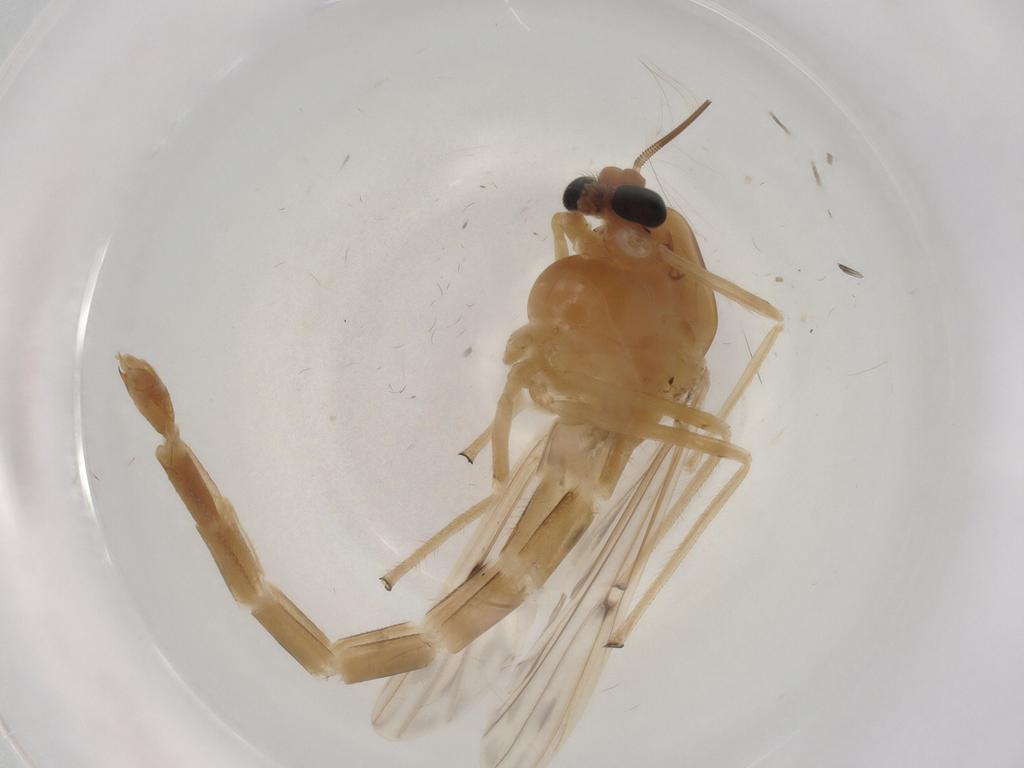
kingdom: Animalia
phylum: Arthropoda
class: Insecta
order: Diptera
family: Chironomidae
